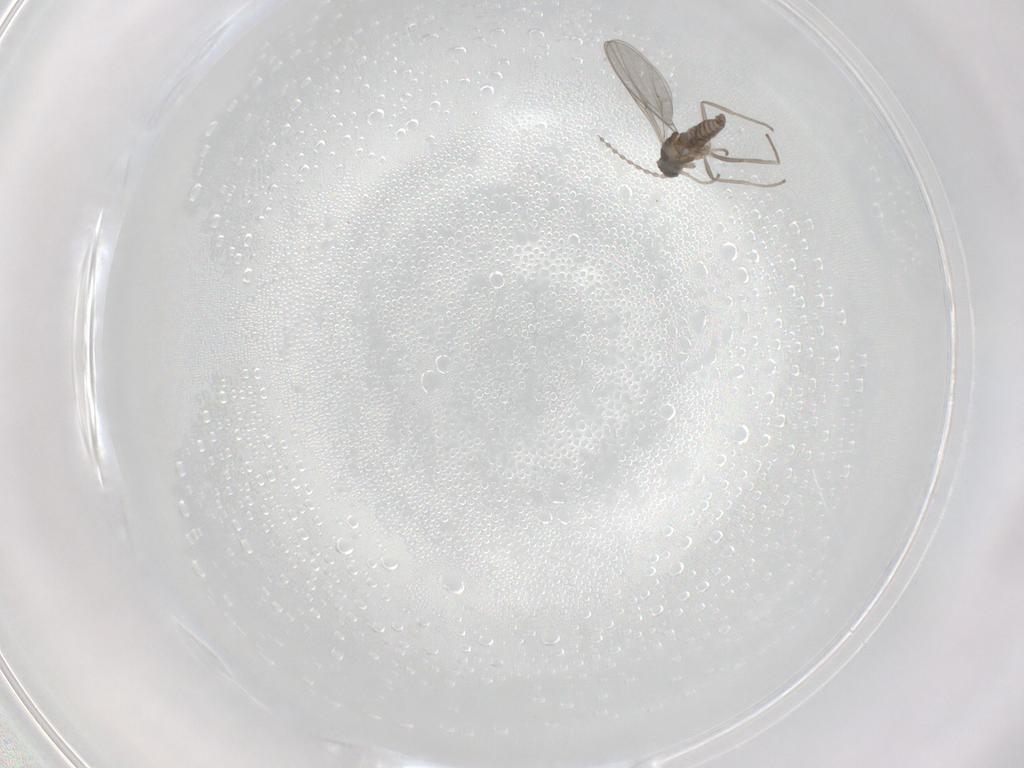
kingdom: Animalia
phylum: Arthropoda
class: Insecta
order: Diptera
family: Cecidomyiidae
